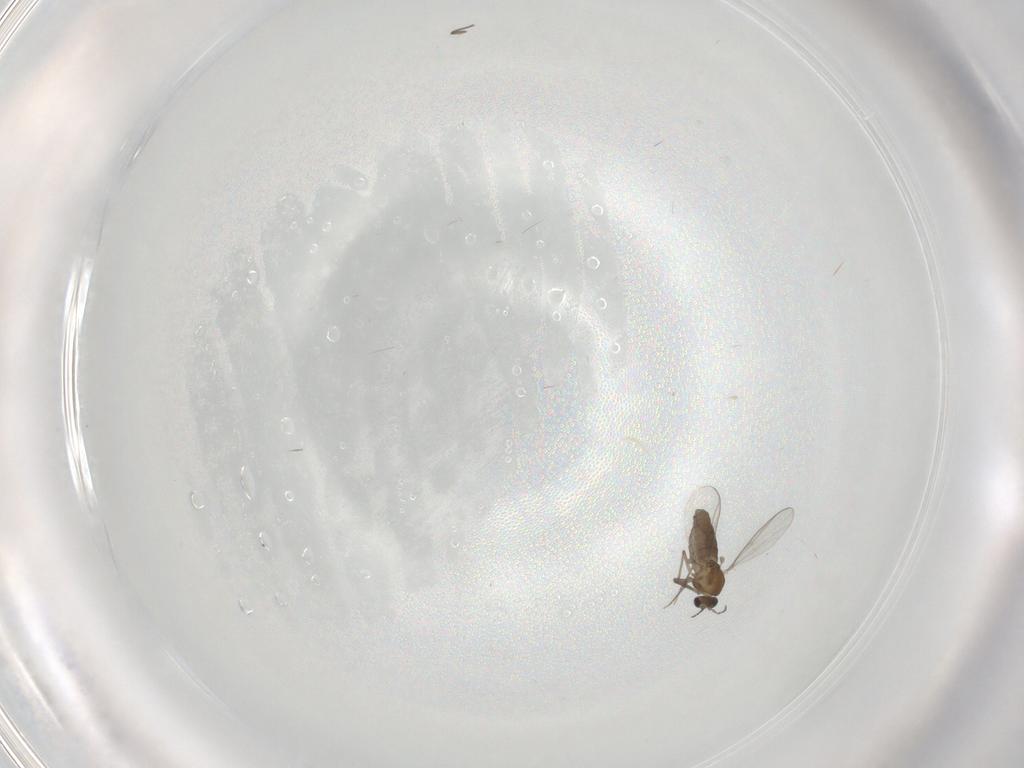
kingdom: Animalia
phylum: Arthropoda
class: Insecta
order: Diptera
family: Chironomidae
